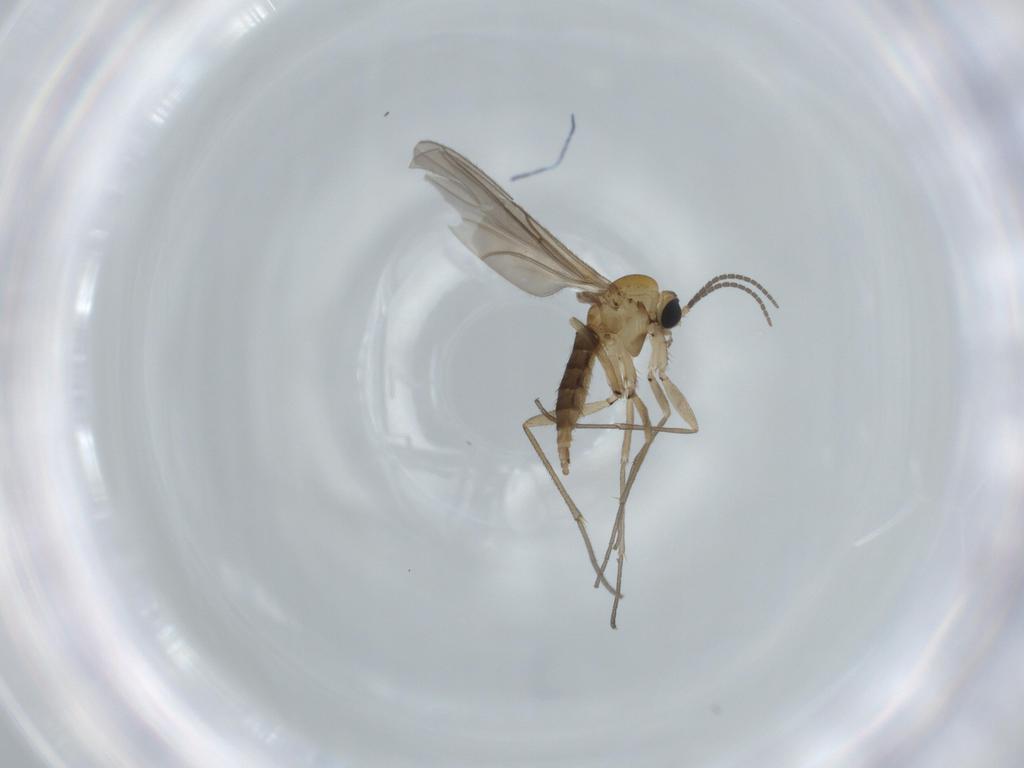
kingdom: Animalia
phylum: Arthropoda
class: Insecta
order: Diptera
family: Sciaridae
